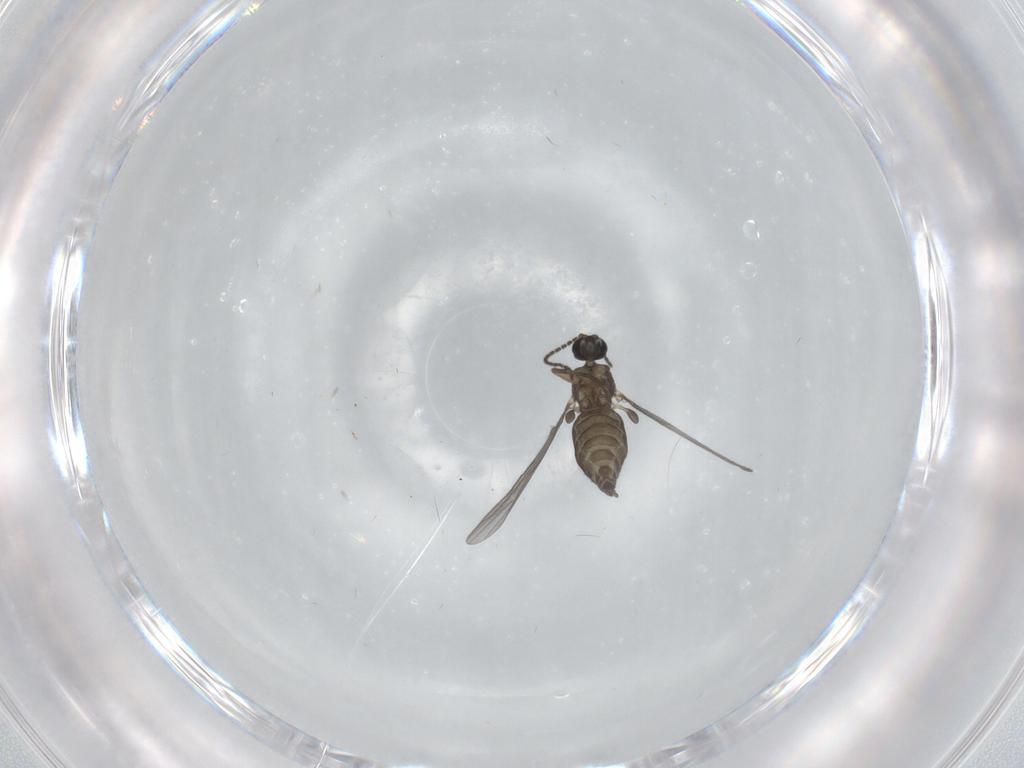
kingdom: Animalia
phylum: Arthropoda
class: Insecta
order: Diptera
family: Sciaridae
